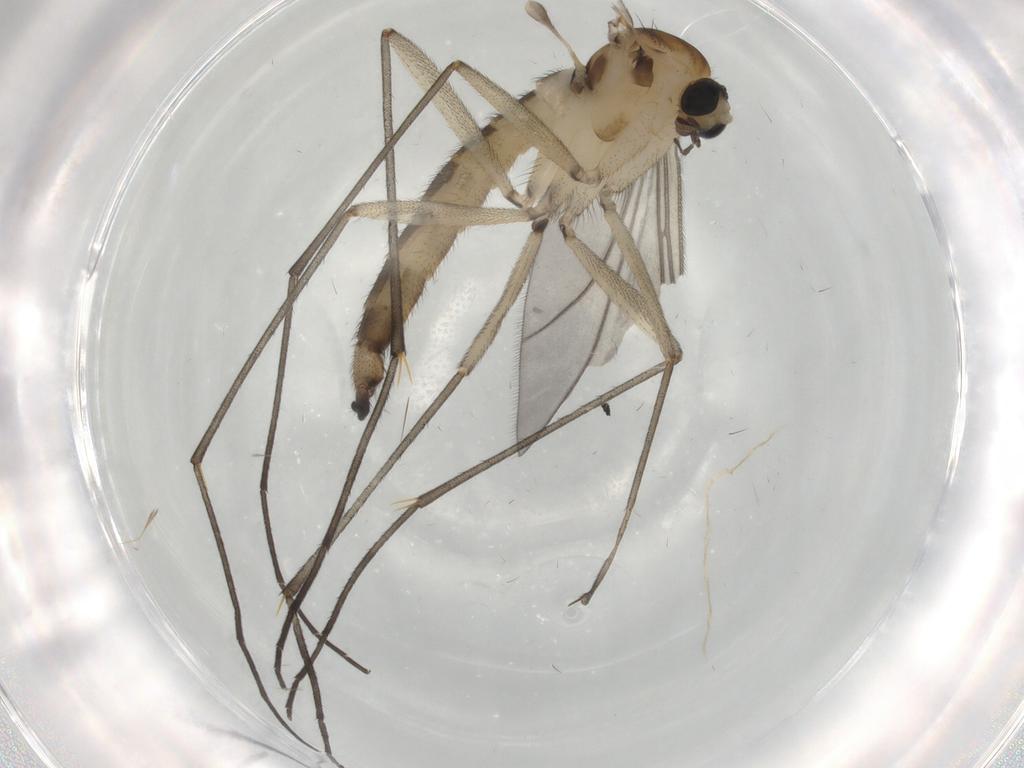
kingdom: Animalia
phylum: Arthropoda
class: Insecta
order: Diptera
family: Sciaridae
